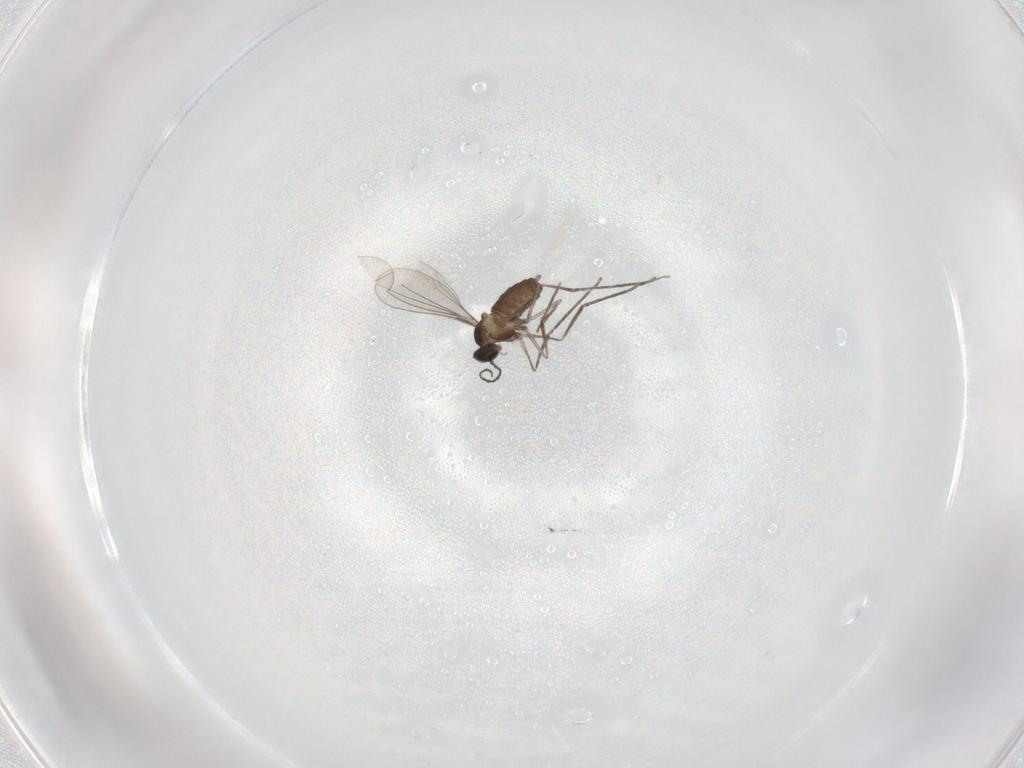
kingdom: Animalia
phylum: Arthropoda
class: Insecta
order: Diptera
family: Cecidomyiidae
